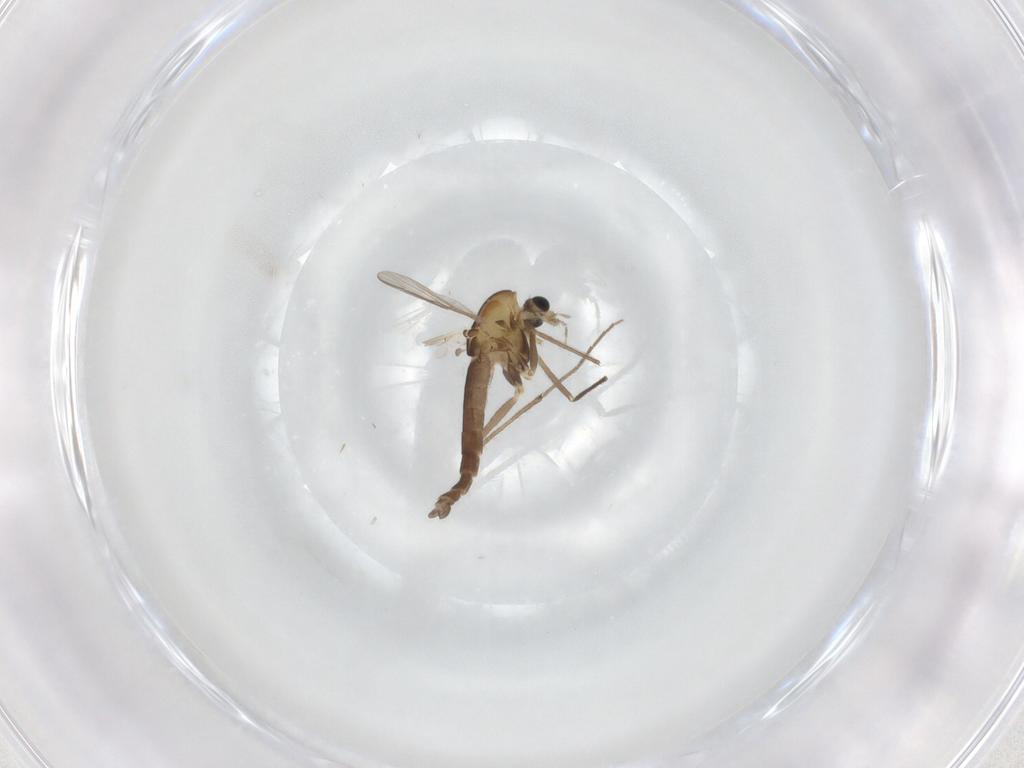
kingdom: Animalia
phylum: Arthropoda
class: Insecta
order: Diptera
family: Chironomidae
